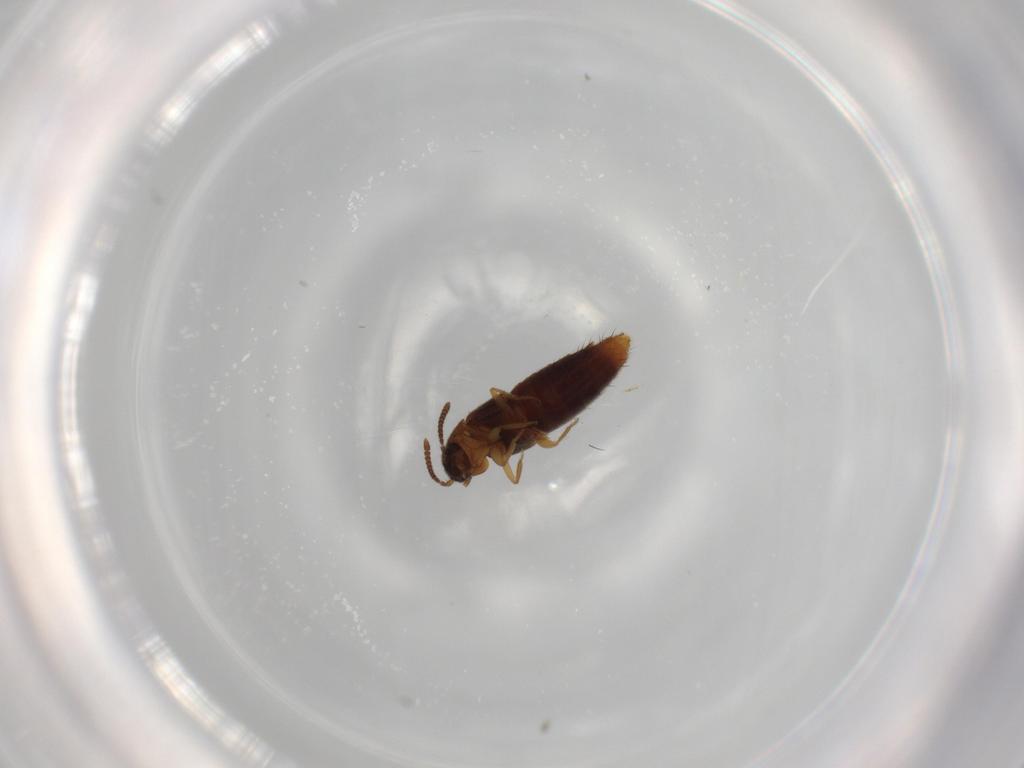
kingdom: Animalia
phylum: Arthropoda
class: Insecta
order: Coleoptera
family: Staphylinidae
